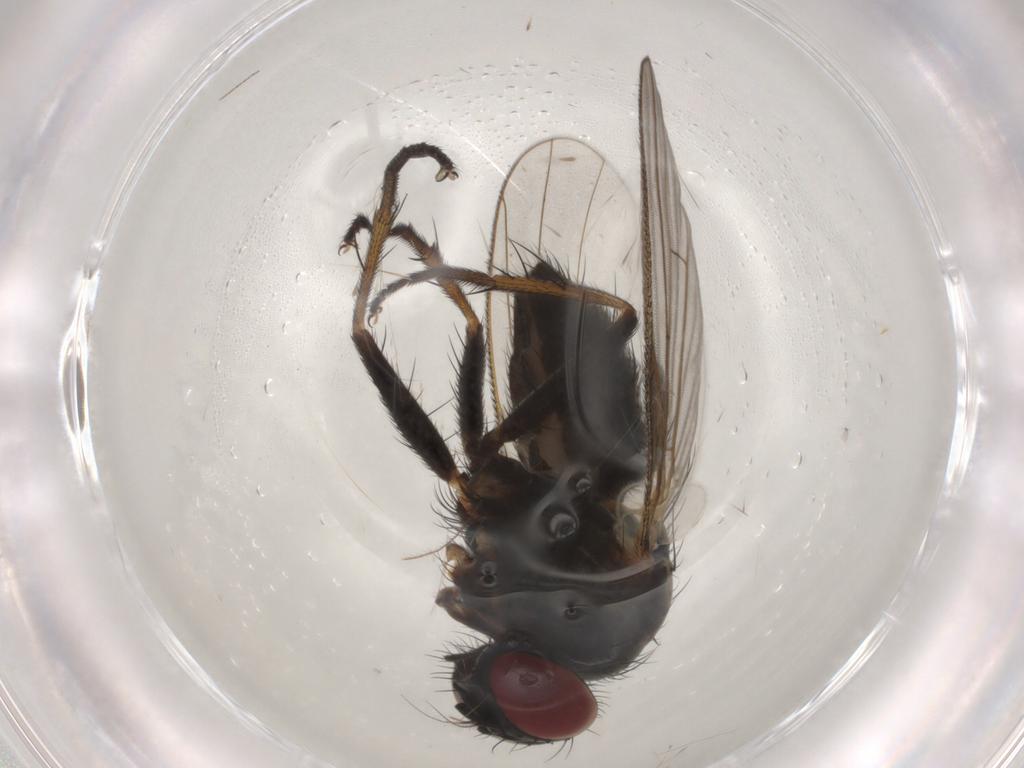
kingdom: Animalia
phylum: Arthropoda
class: Insecta
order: Diptera
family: Muscidae
